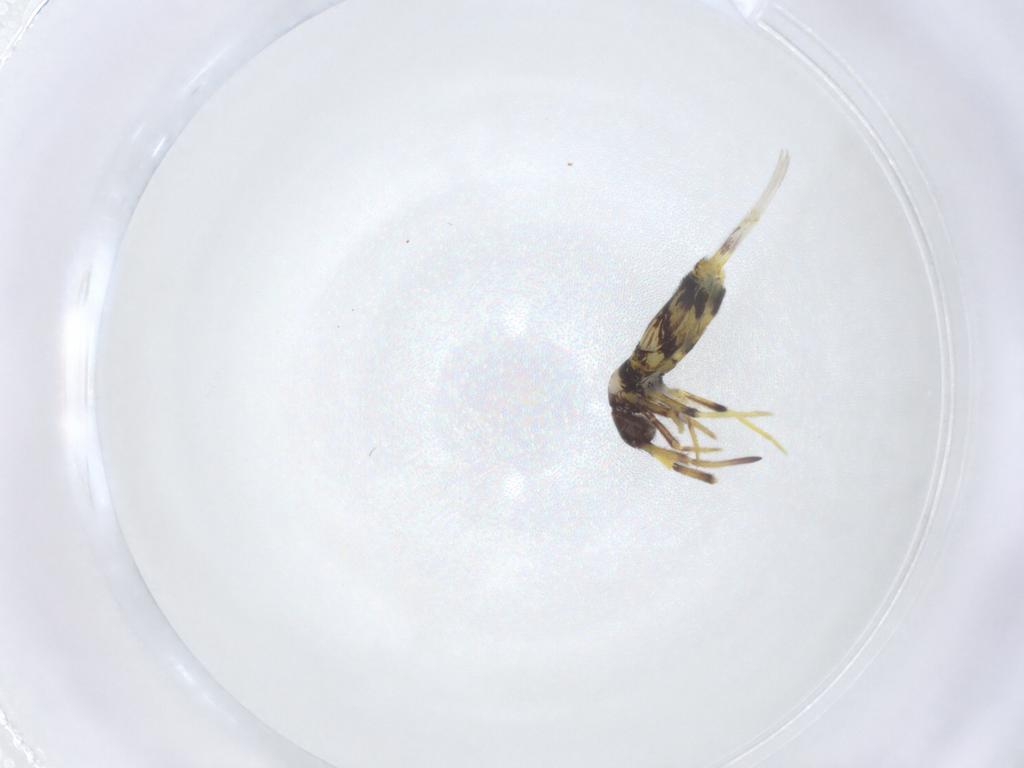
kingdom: Animalia
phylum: Arthropoda
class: Collembola
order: Entomobryomorpha
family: Entomobryidae
